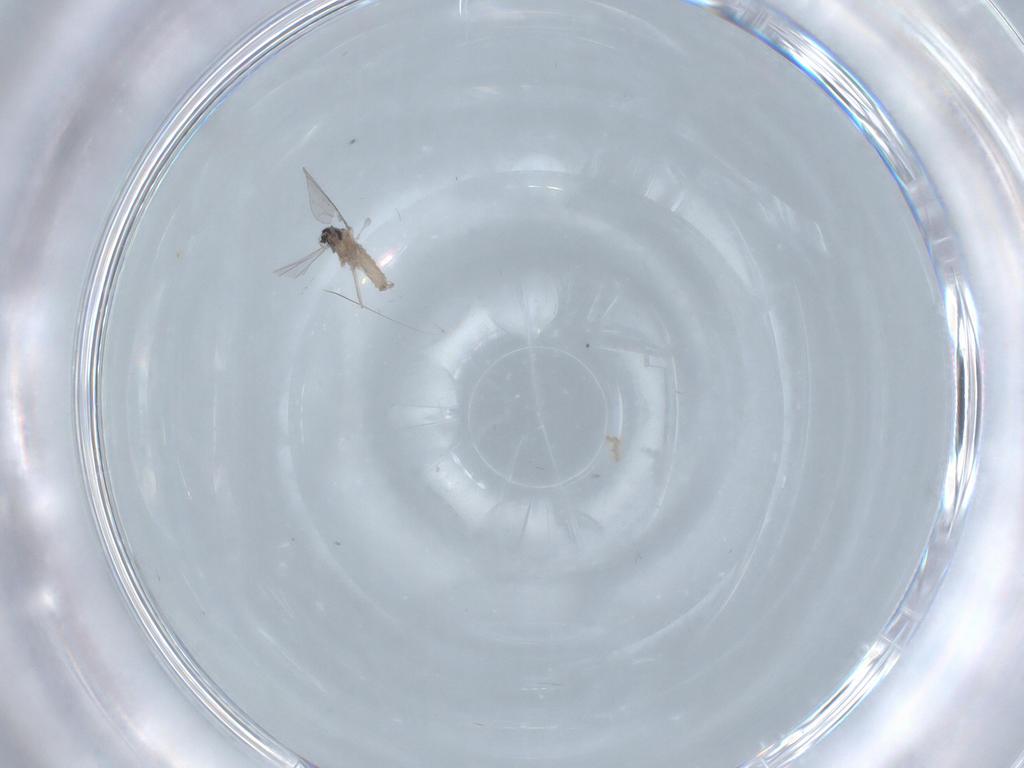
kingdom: Animalia
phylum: Arthropoda
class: Insecta
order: Diptera
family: Cecidomyiidae
